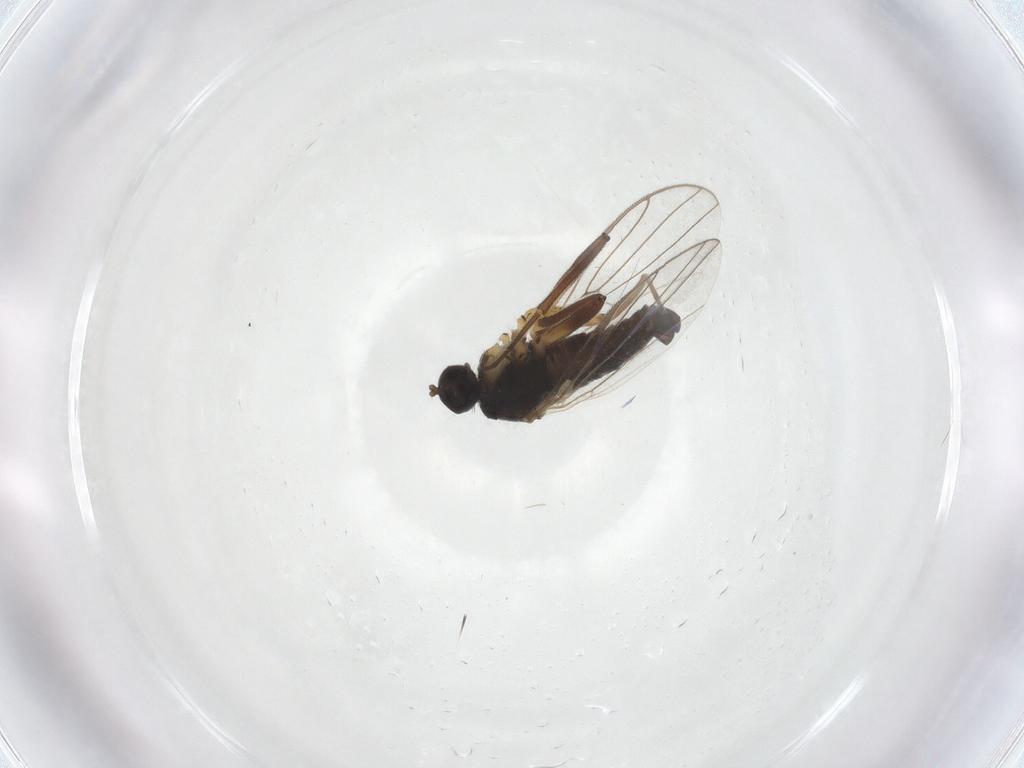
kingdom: Animalia
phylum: Arthropoda
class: Insecta
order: Diptera
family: Hybotidae
